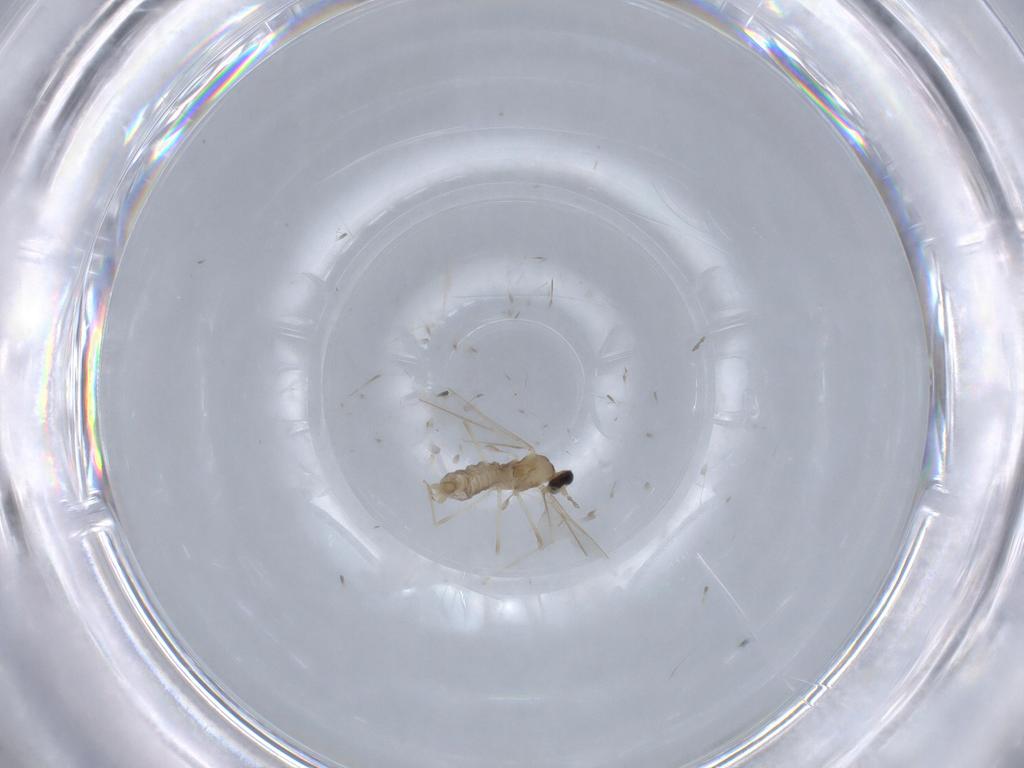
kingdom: Animalia
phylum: Arthropoda
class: Insecta
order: Diptera
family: Cecidomyiidae
